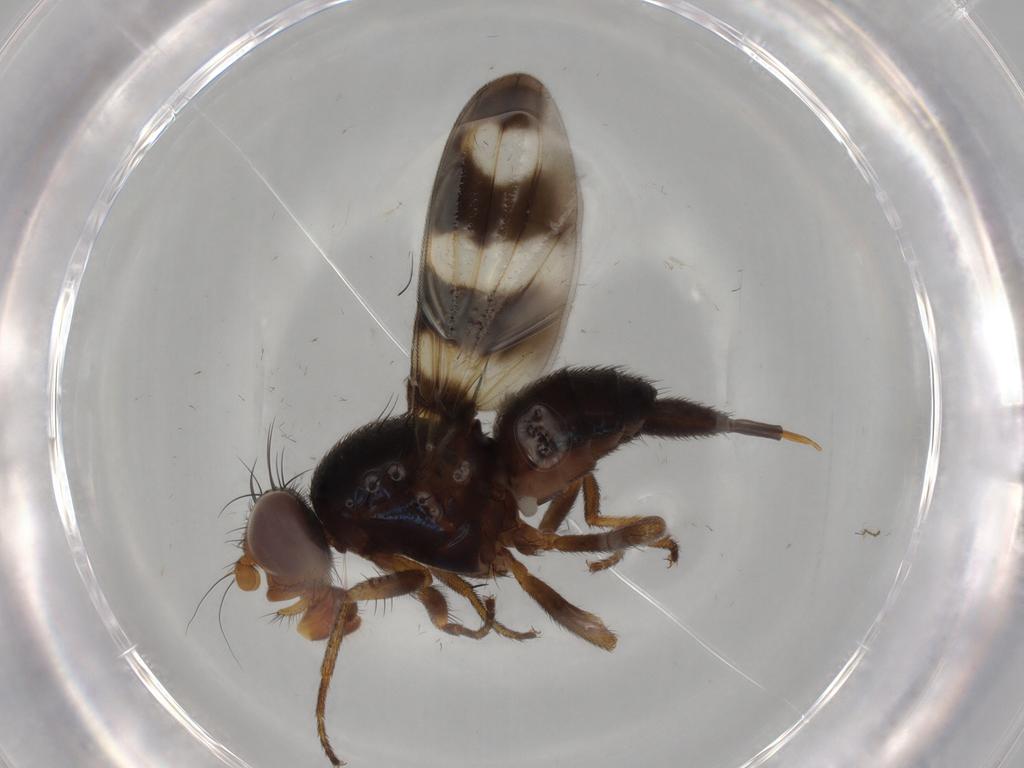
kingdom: Animalia
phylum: Arthropoda
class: Insecta
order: Diptera
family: Ulidiidae
